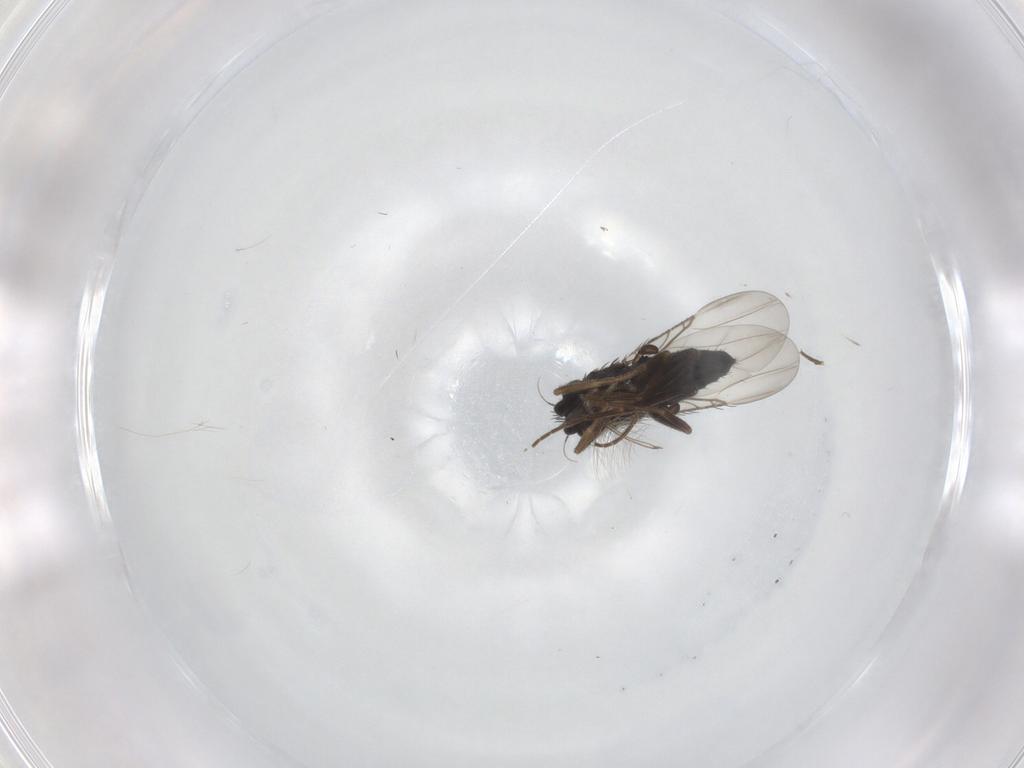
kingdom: Animalia
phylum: Arthropoda
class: Insecta
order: Diptera
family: Phoridae
